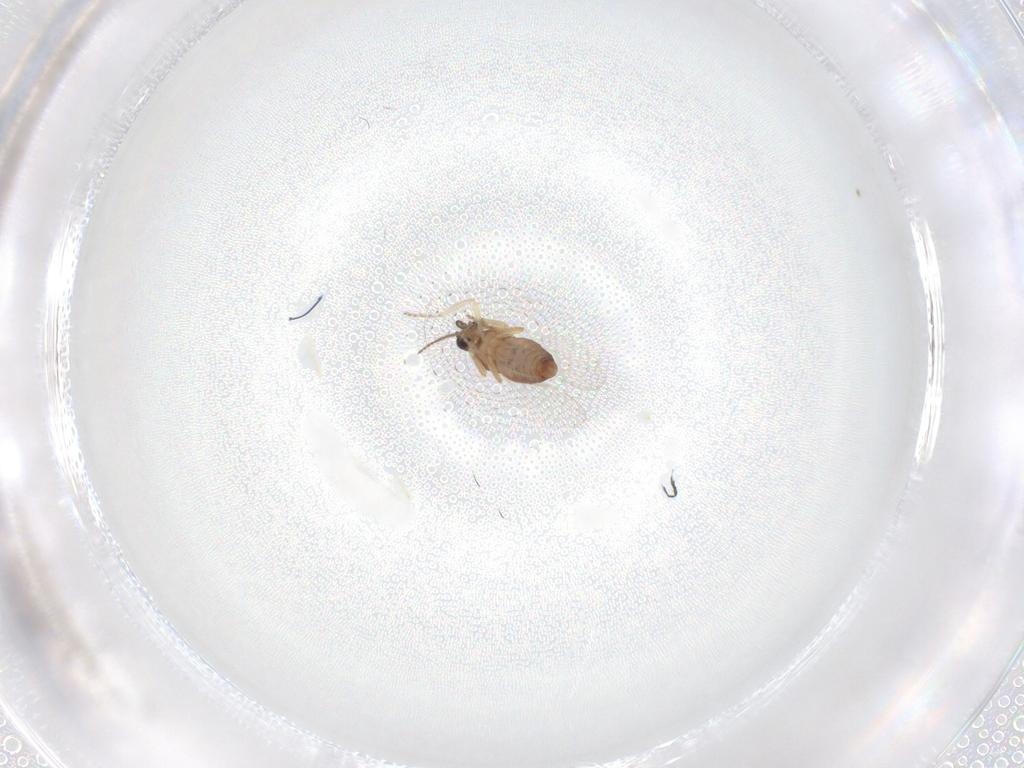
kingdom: Animalia
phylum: Arthropoda
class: Insecta
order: Diptera
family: Ceratopogonidae
